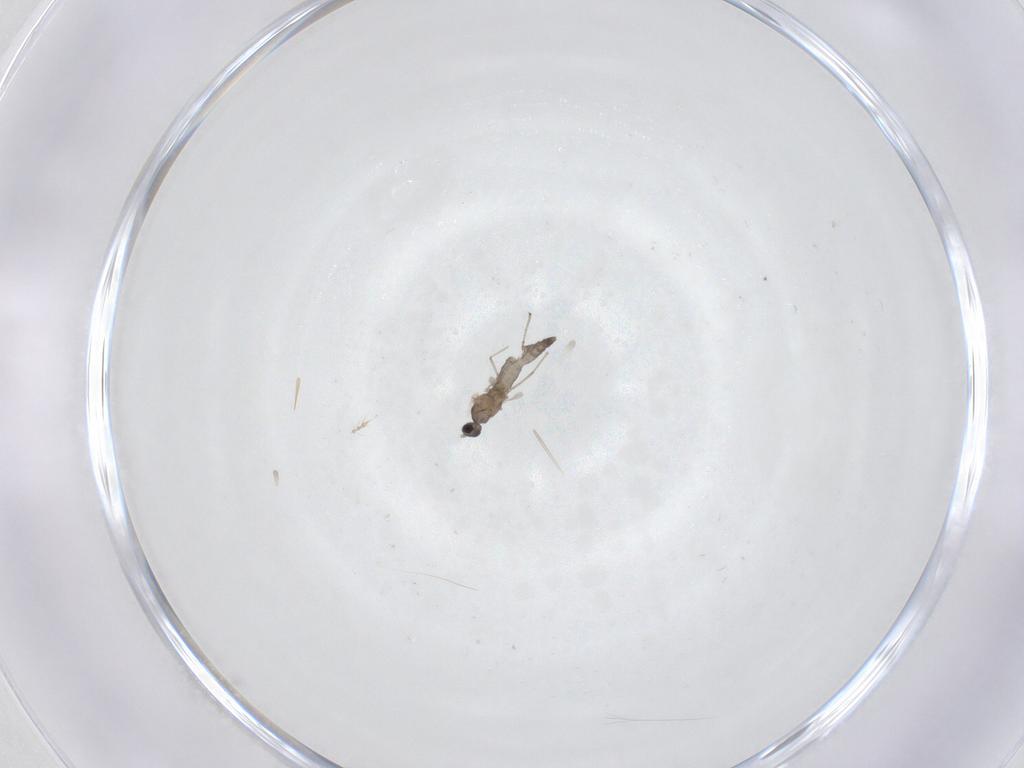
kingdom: Animalia
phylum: Arthropoda
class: Insecta
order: Diptera
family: Cecidomyiidae
